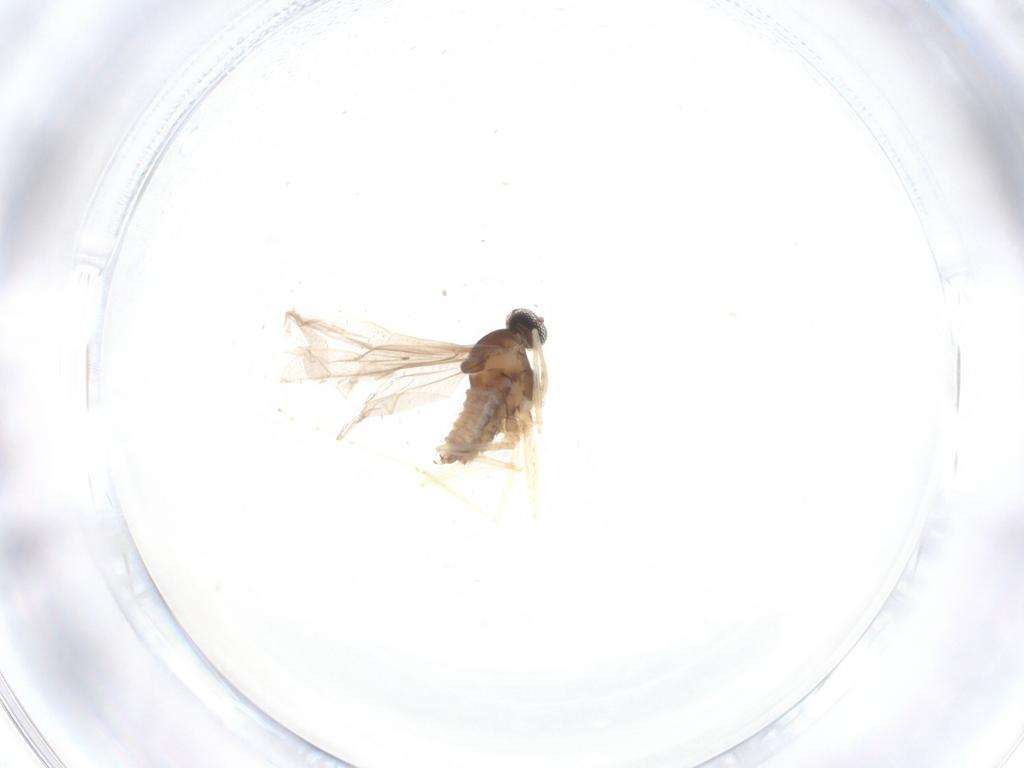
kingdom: Animalia
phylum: Arthropoda
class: Insecta
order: Diptera
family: Cecidomyiidae
